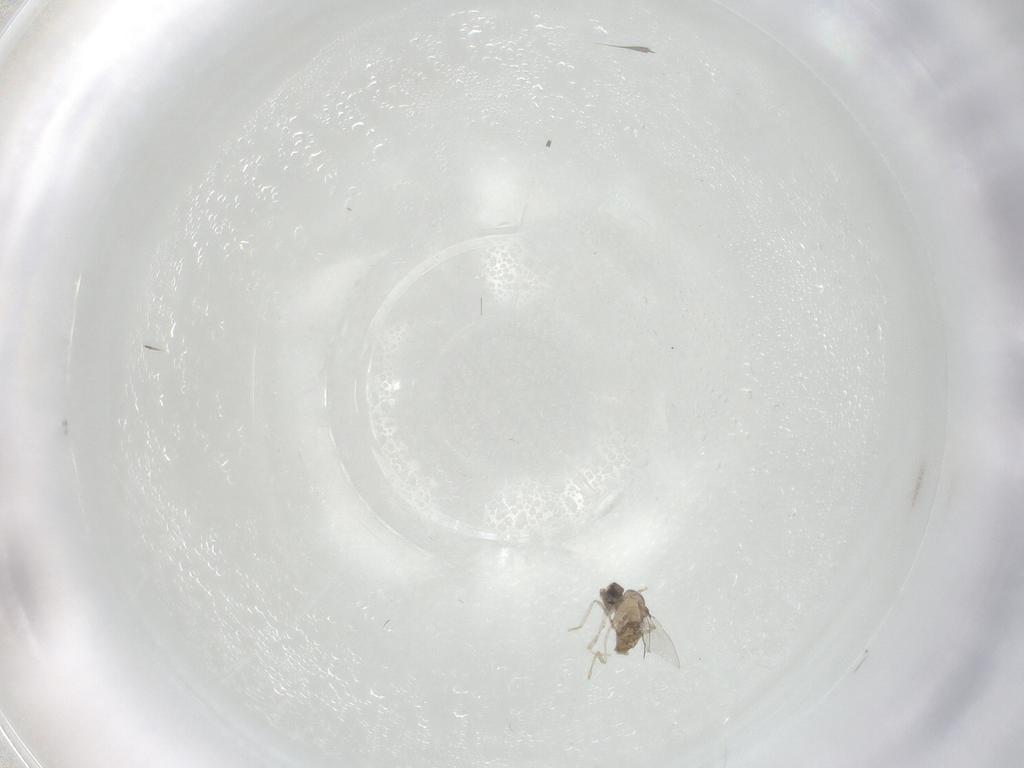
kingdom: Animalia
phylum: Arthropoda
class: Insecta
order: Diptera
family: Cecidomyiidae
